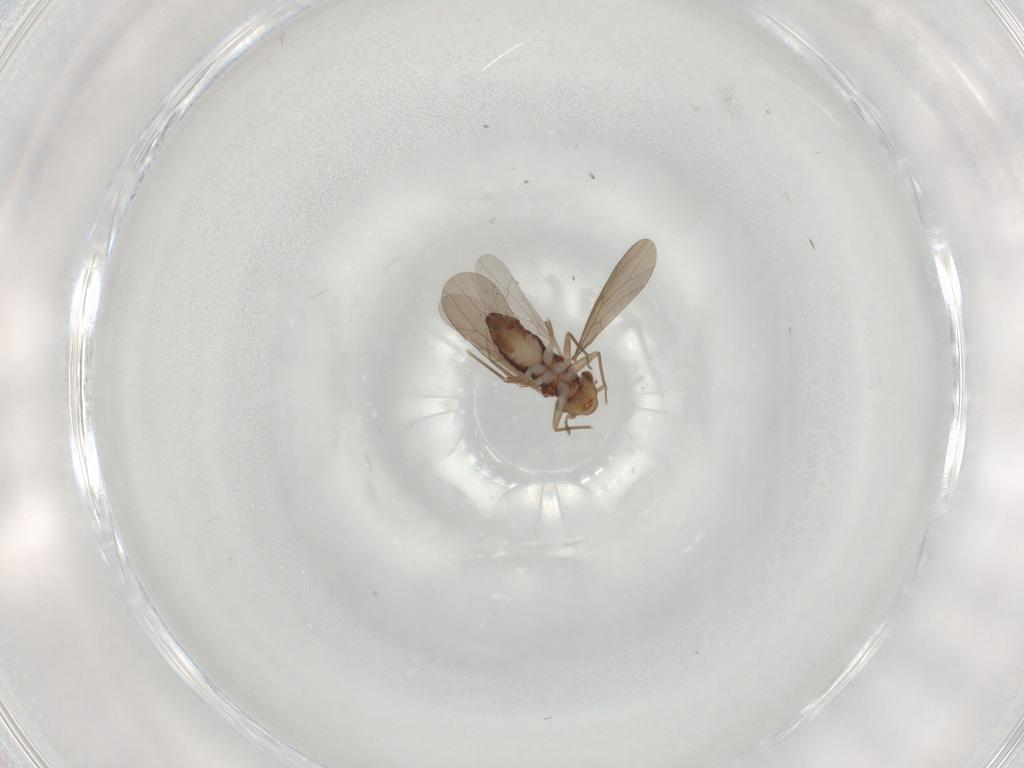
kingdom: Animalia
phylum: Arthropoda
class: Insecta
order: Psocodea
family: Lepidopsocidae
